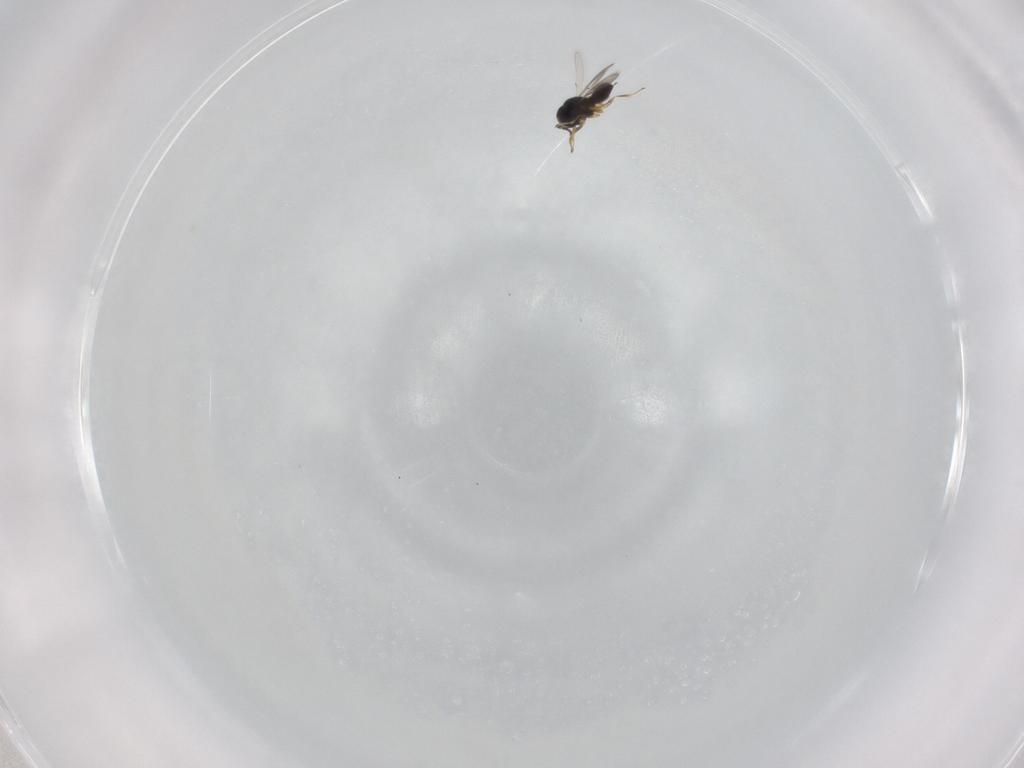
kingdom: Animalia
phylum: Arthropoda
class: Insecta
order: Hymenoptera
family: Scelionidae
